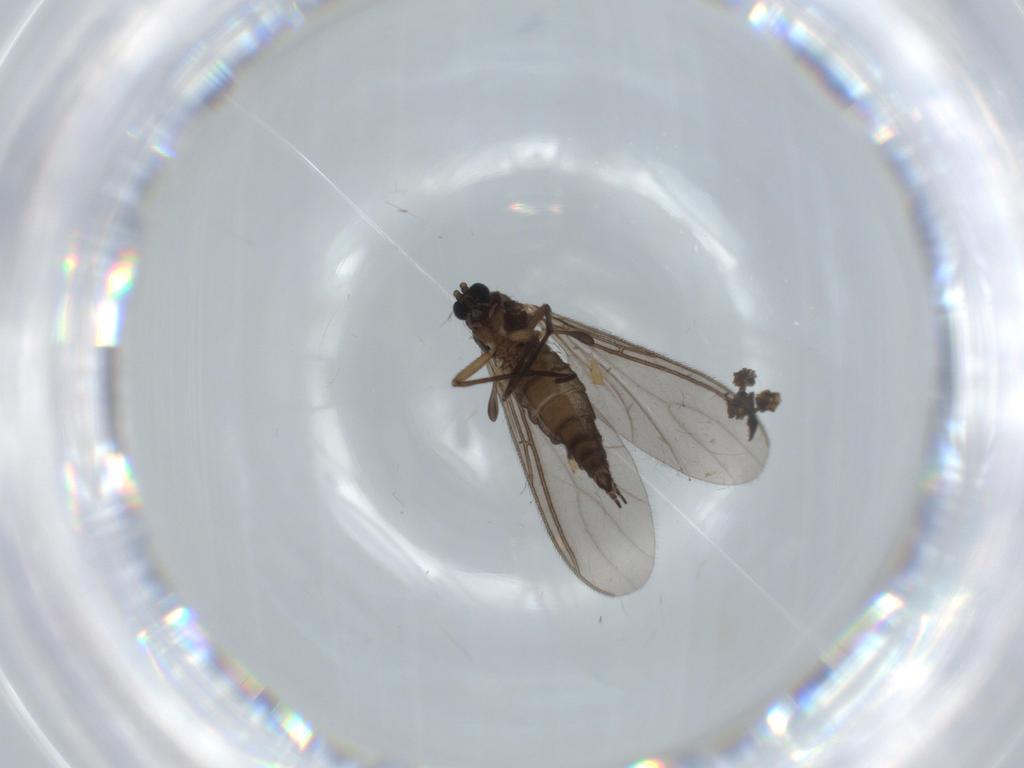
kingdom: Animalia
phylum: Arthropoda
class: Insecta
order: Diptera
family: Sciaridae
